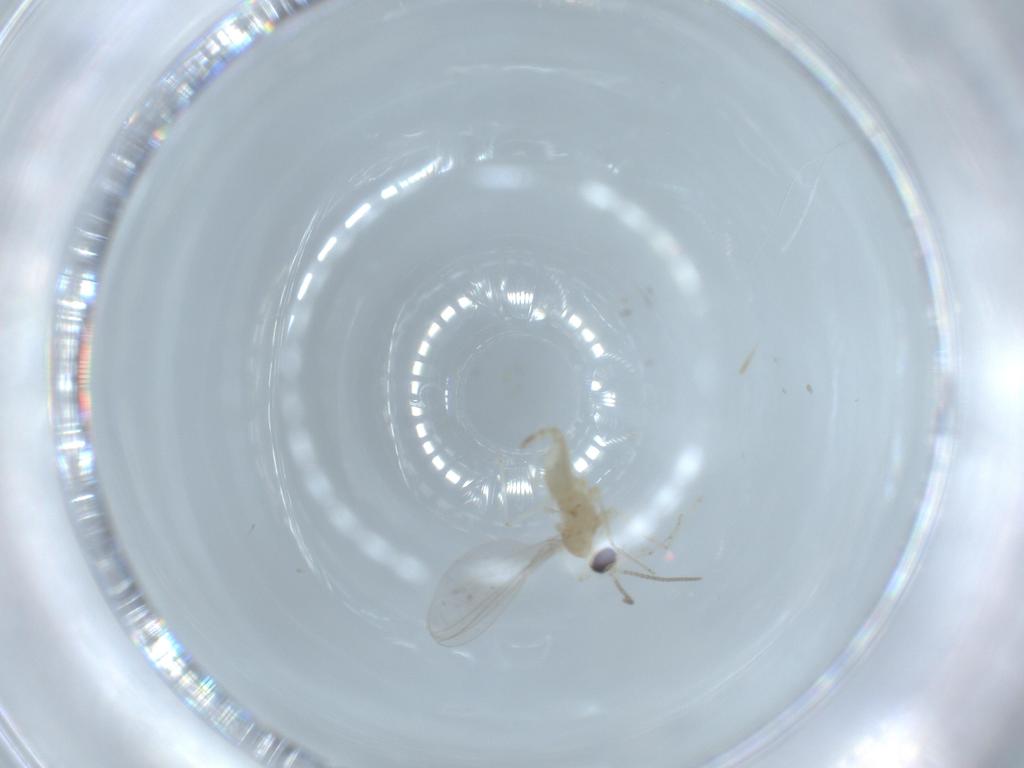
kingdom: Animalia
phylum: Arthropoda
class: Insecta
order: Diptera
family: Cecidomyiidae
